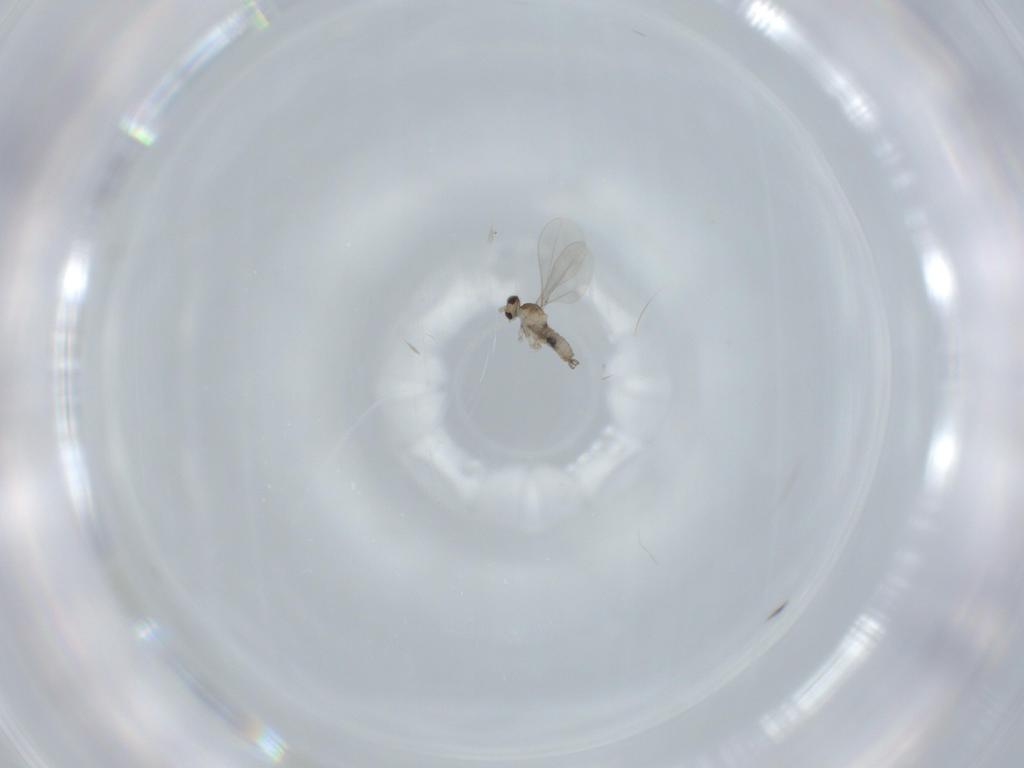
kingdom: Animalia
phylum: Arthropoda
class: Insecta
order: Diptera
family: Cecidomyiidae
